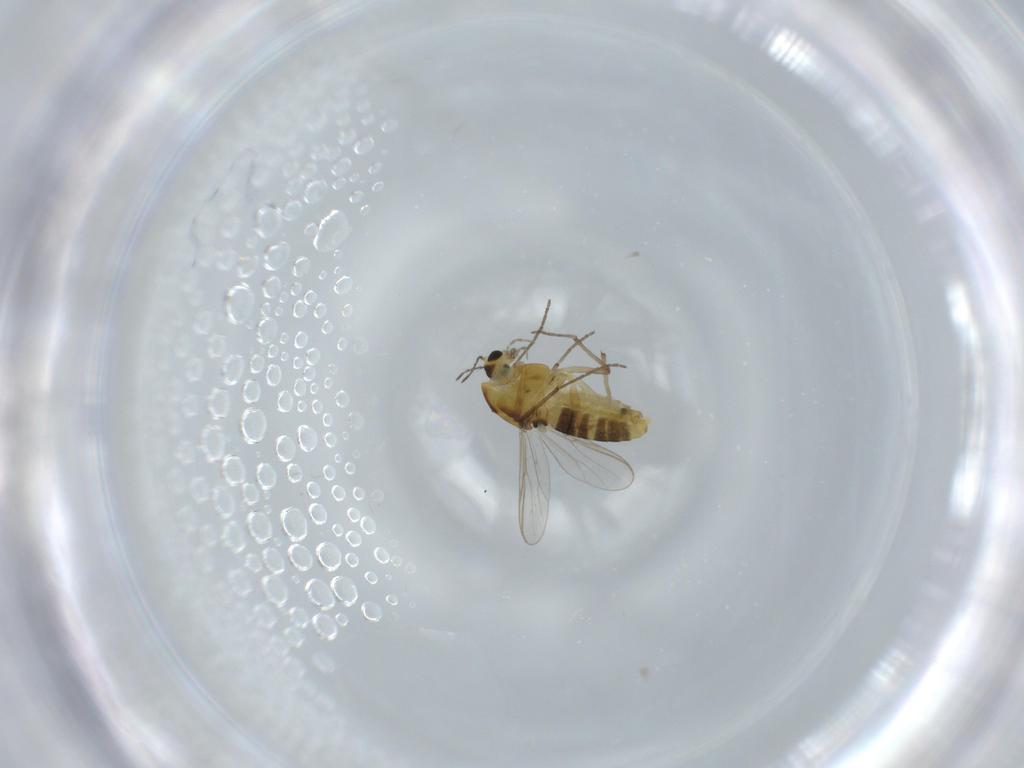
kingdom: Animalia
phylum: Arthropoda
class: Insecta
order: Diptera
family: Chironomidae
